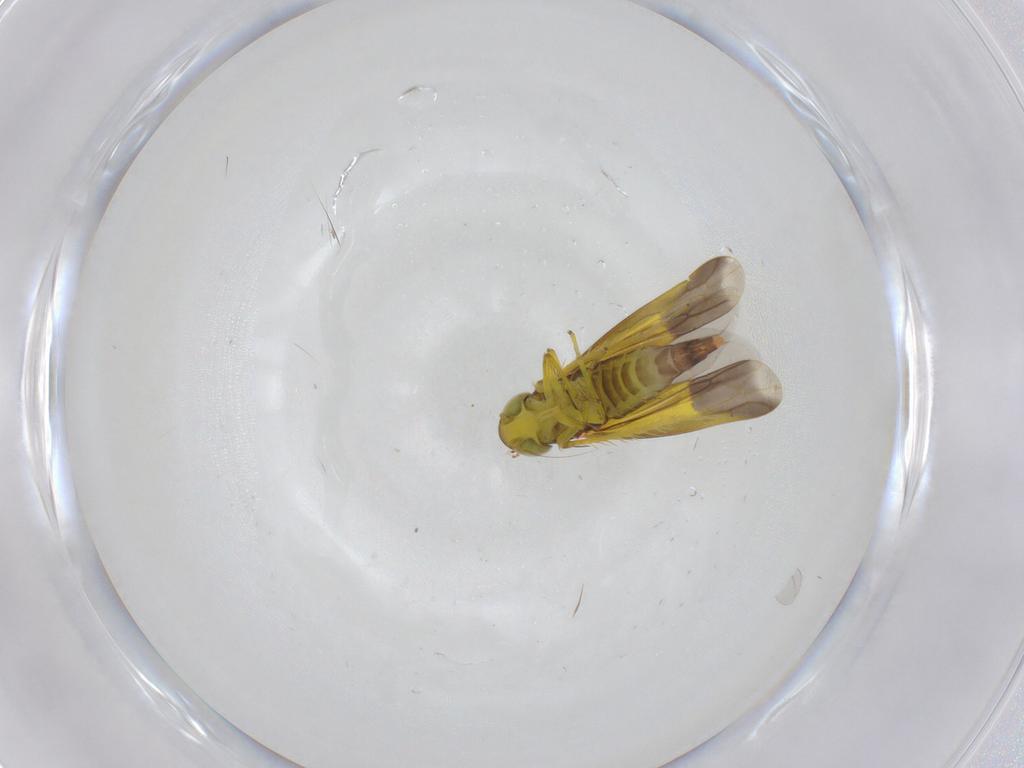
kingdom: Animalia
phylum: Arthropoda
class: Insecta
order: Hemiptera
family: Cicadellidae
